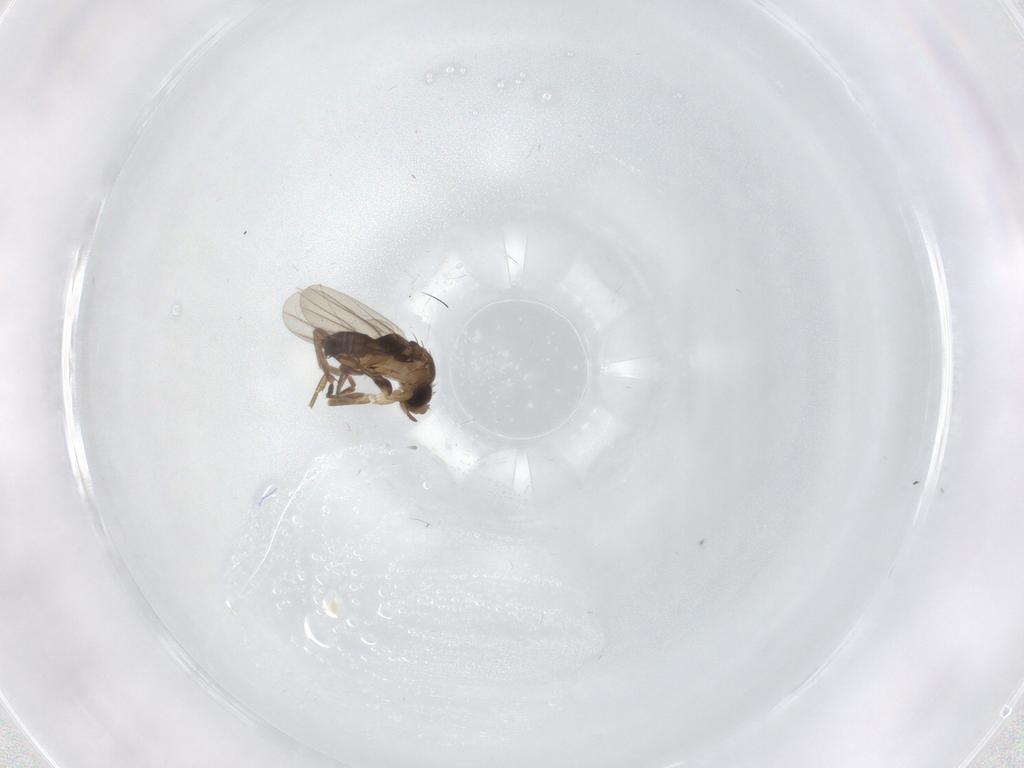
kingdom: Animalia
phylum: Arthropoda
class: Insecta
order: Diptera
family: Phoridae
